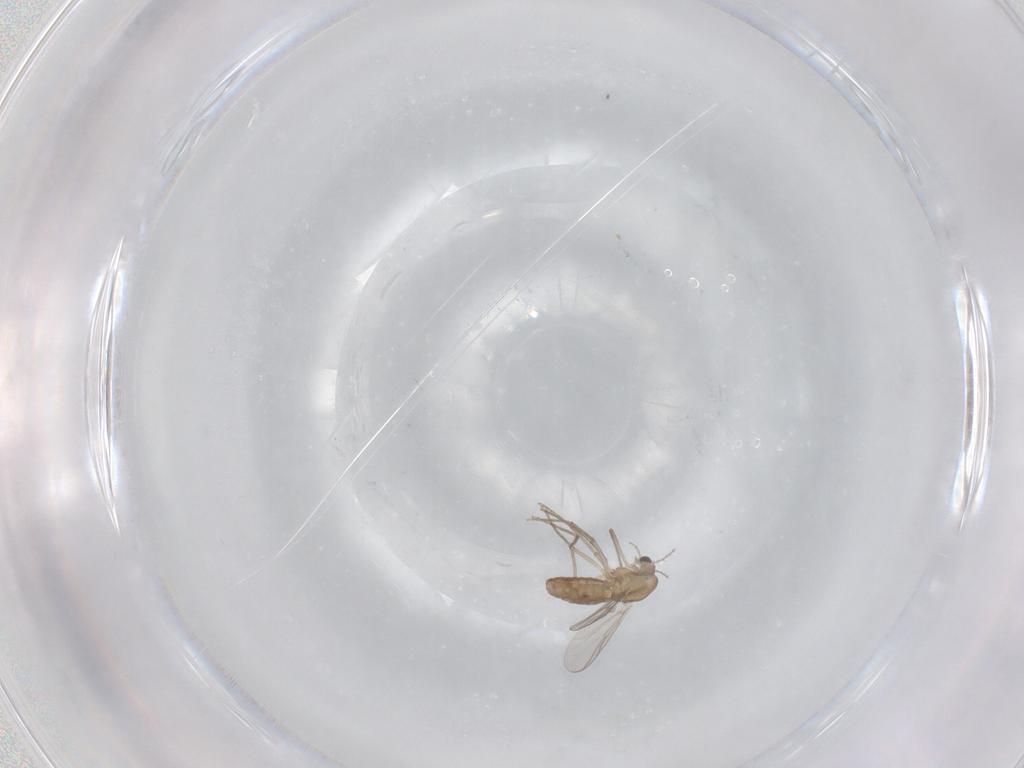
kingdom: Animalia
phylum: Arthropoda
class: Insecta
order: Diptera
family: Chironomidae
